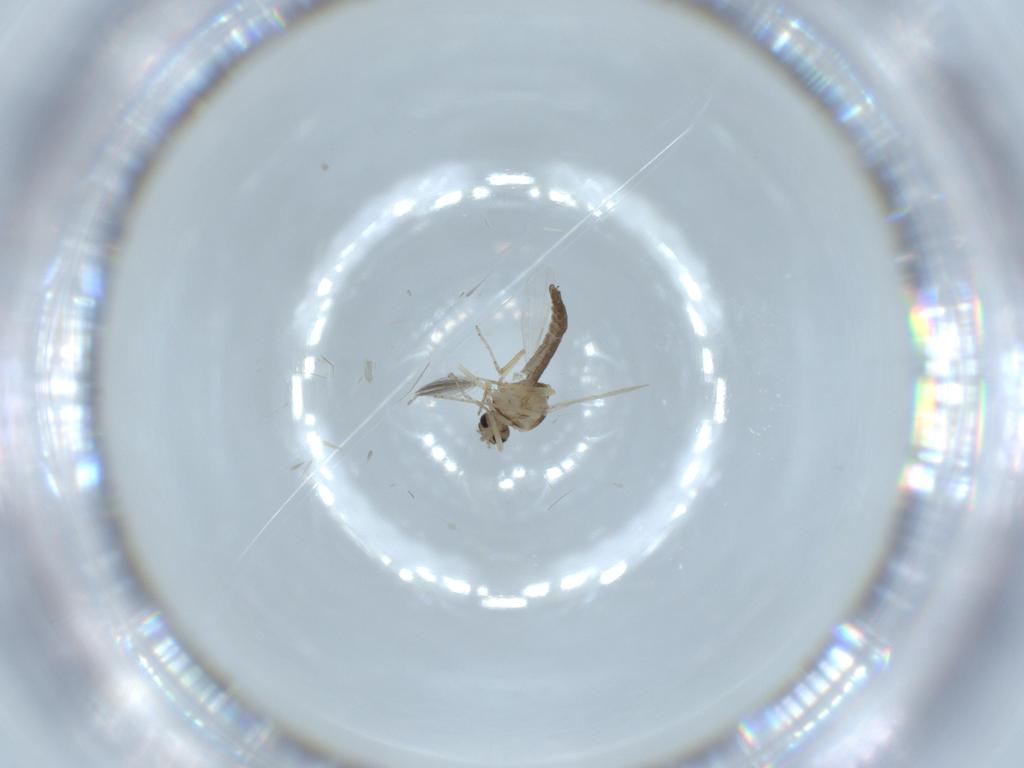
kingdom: Animalia
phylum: Arthropoda
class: Insecta
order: Diptera
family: Ceratopogonidae
